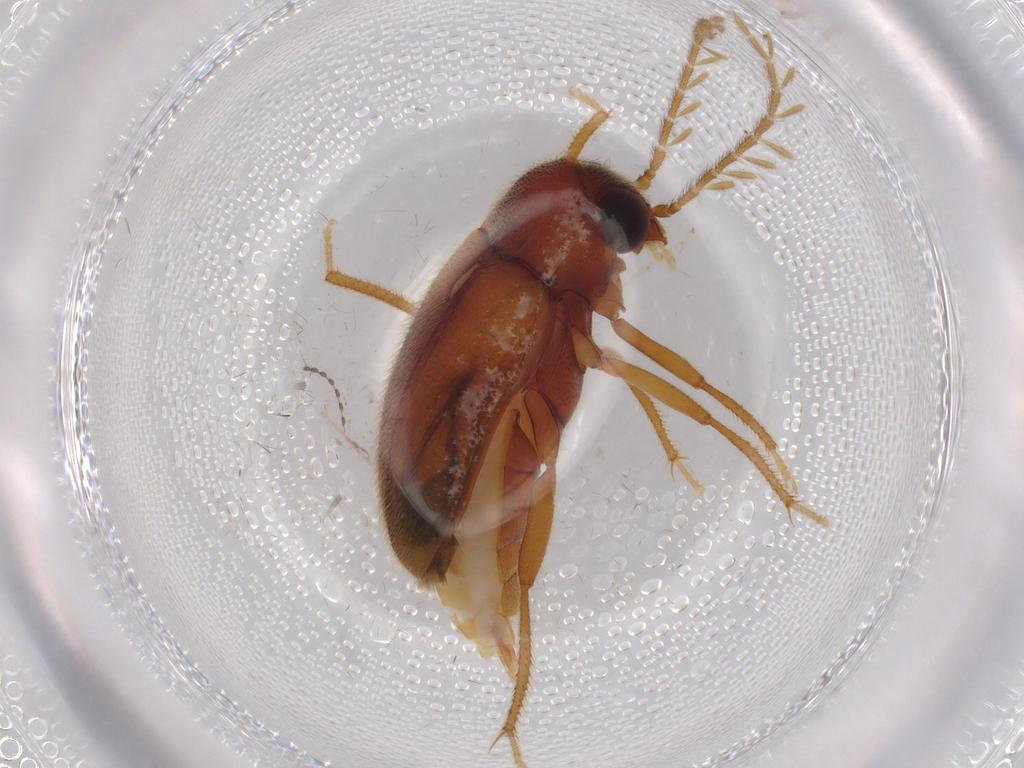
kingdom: Animalia
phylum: Arthropoda
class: Insecta
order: Coleoptera
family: Ptilodactylidae
